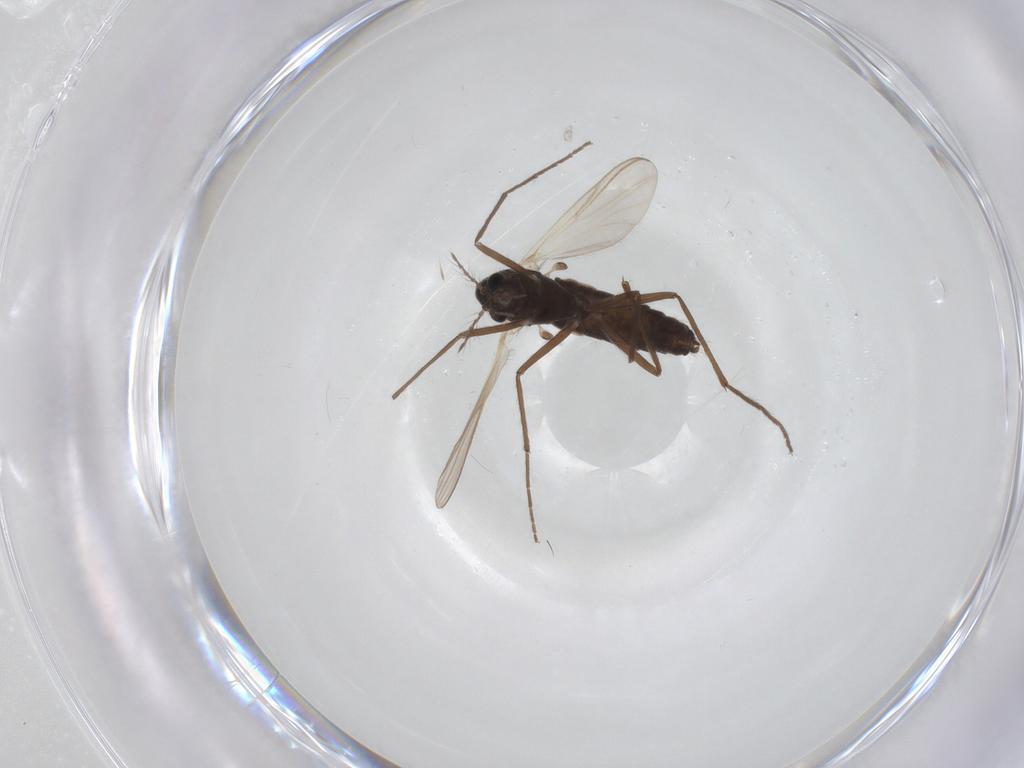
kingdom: Animalia
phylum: Arthropoda
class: Insecta
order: Diptera
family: Chironomidae
